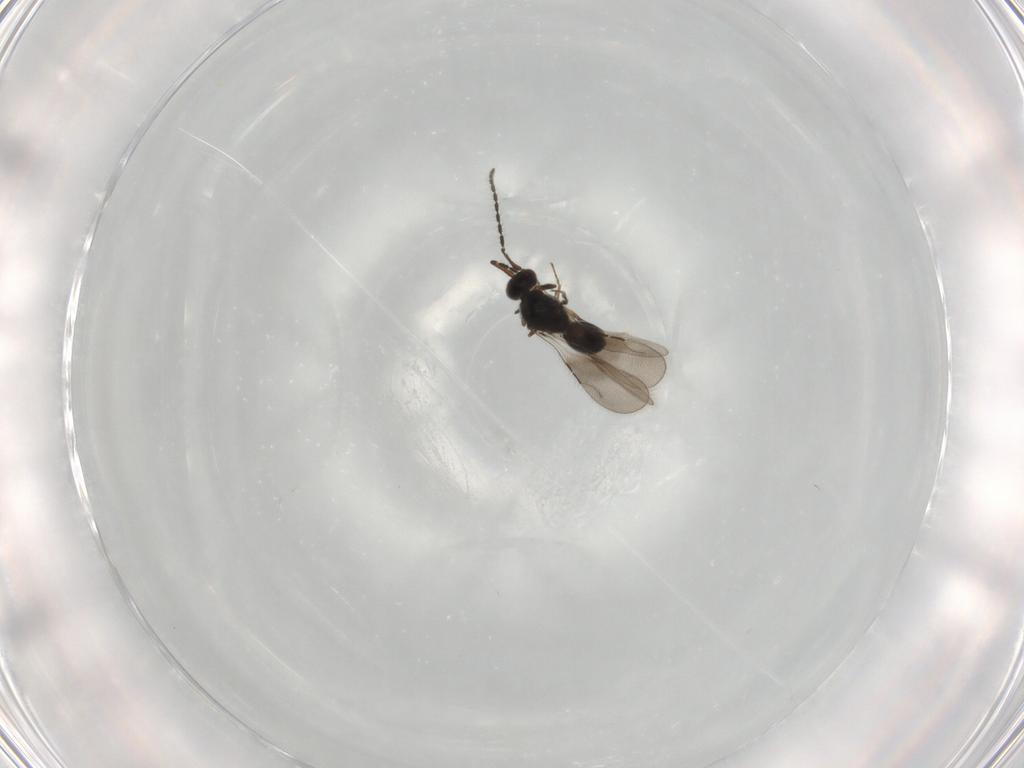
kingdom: Animalia
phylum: Arthropoda
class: Insecta
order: Hymenoptera
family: Ceraphronidae
